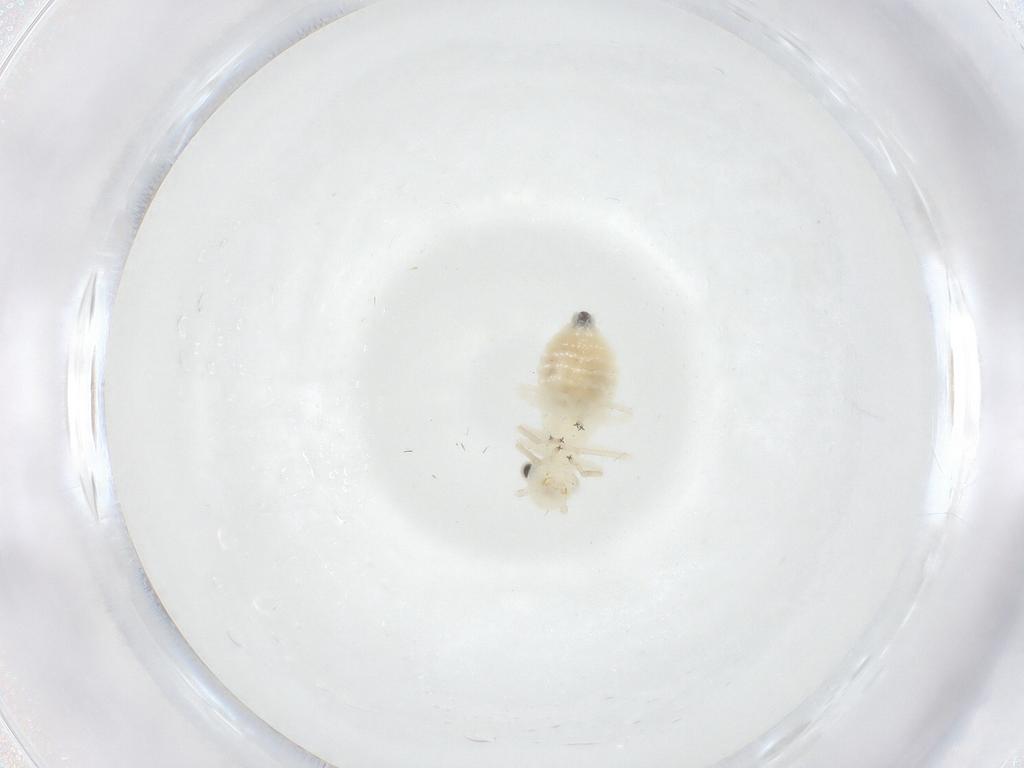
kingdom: Animalia
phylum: Arthropoda
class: Insecta
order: Psocodea
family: Caeciliusidae
